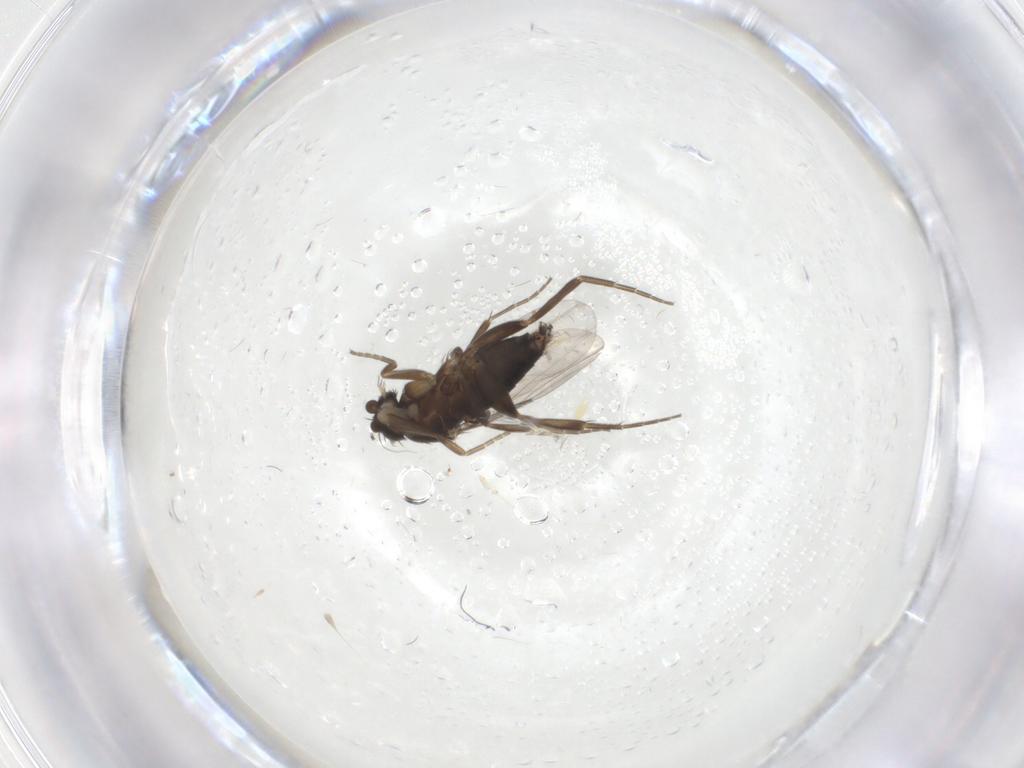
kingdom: Animalia
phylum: Arthropoda
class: Insecta
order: Diptera
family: Phoridae
